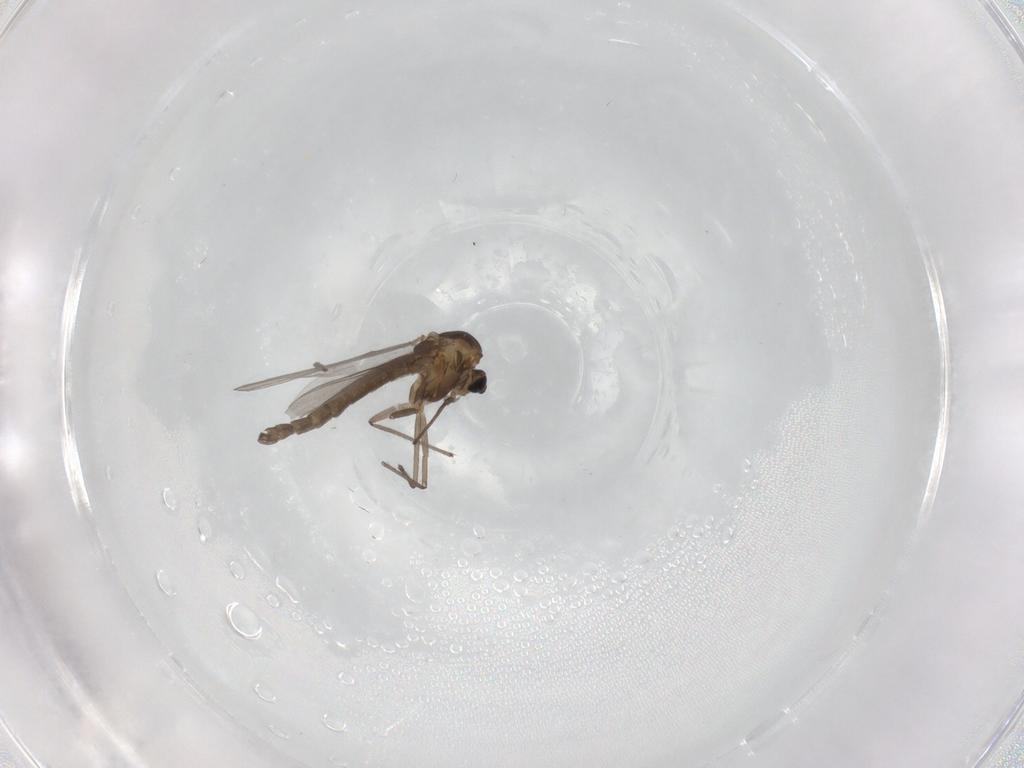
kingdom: Animalia
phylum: Arthropoda
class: Insecta
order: Diptera
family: Chironomidae
